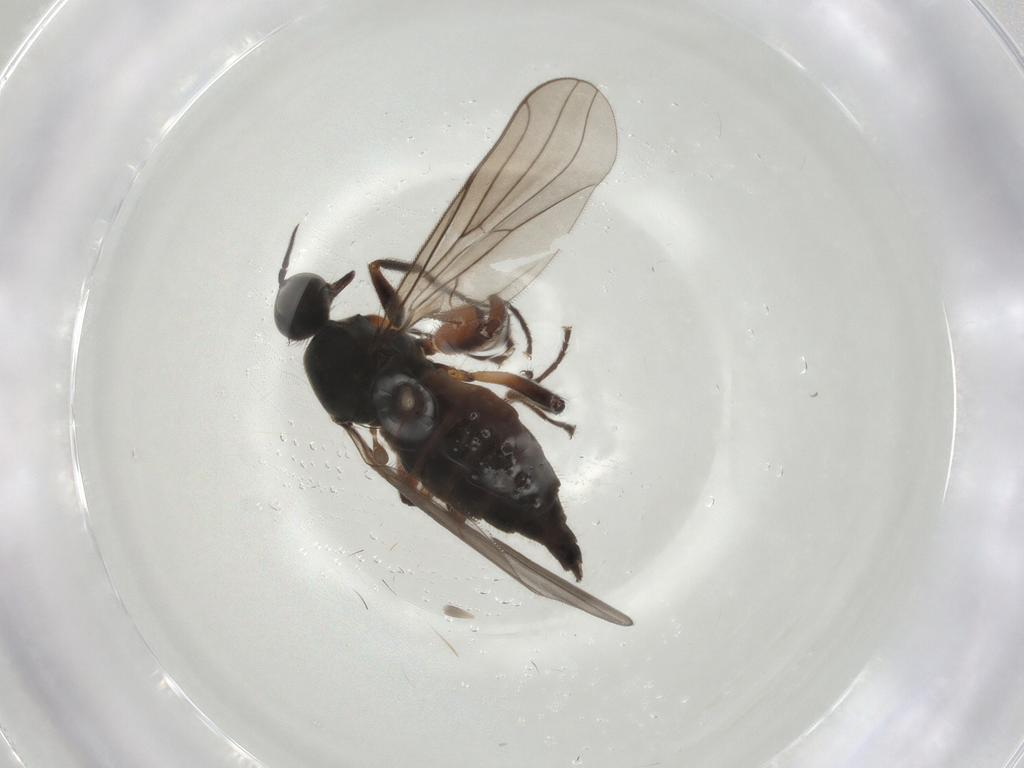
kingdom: Animalia
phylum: Arthropoda
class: Insecta
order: Diptera
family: Hybotidae
